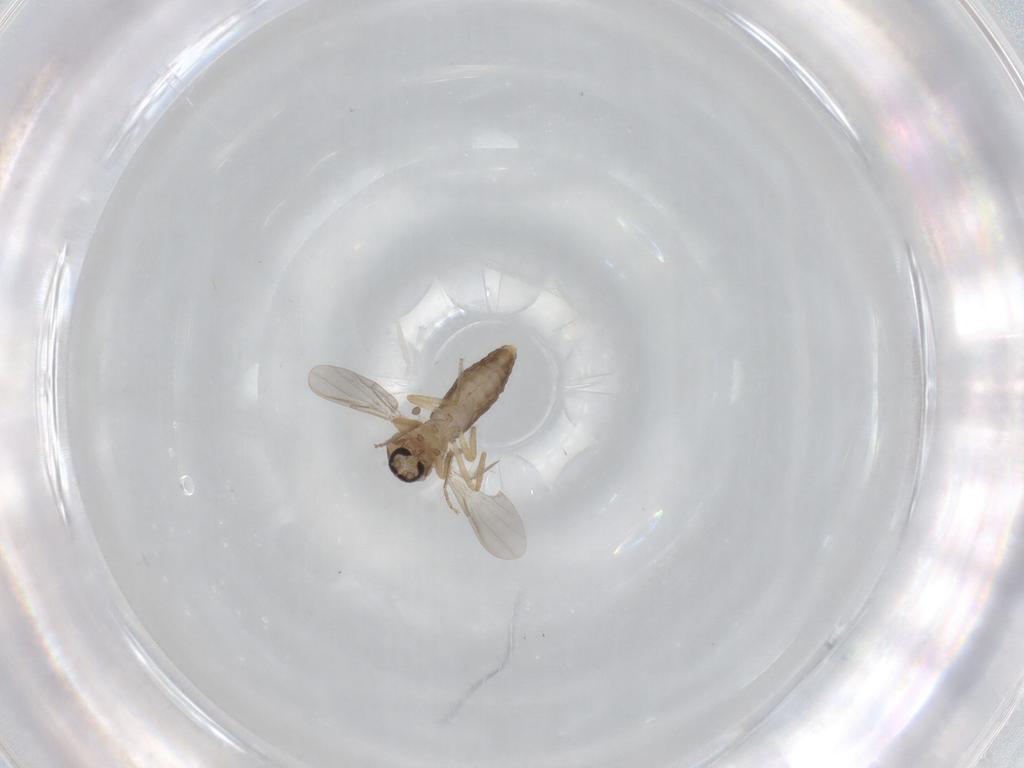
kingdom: Animalia
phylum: Arthropoda
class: Insecta
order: Diptera
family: Ceratopogonidae
